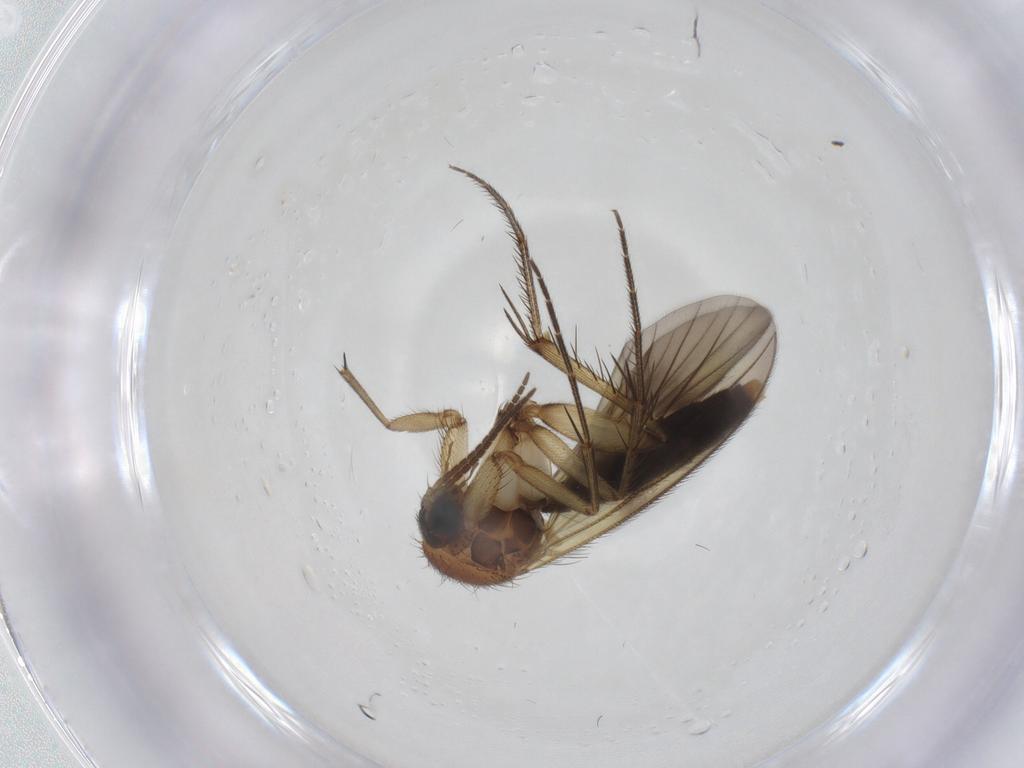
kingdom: Animalia
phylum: Arthropoda
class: Insecta
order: Diptera
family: Mycetophilidae
